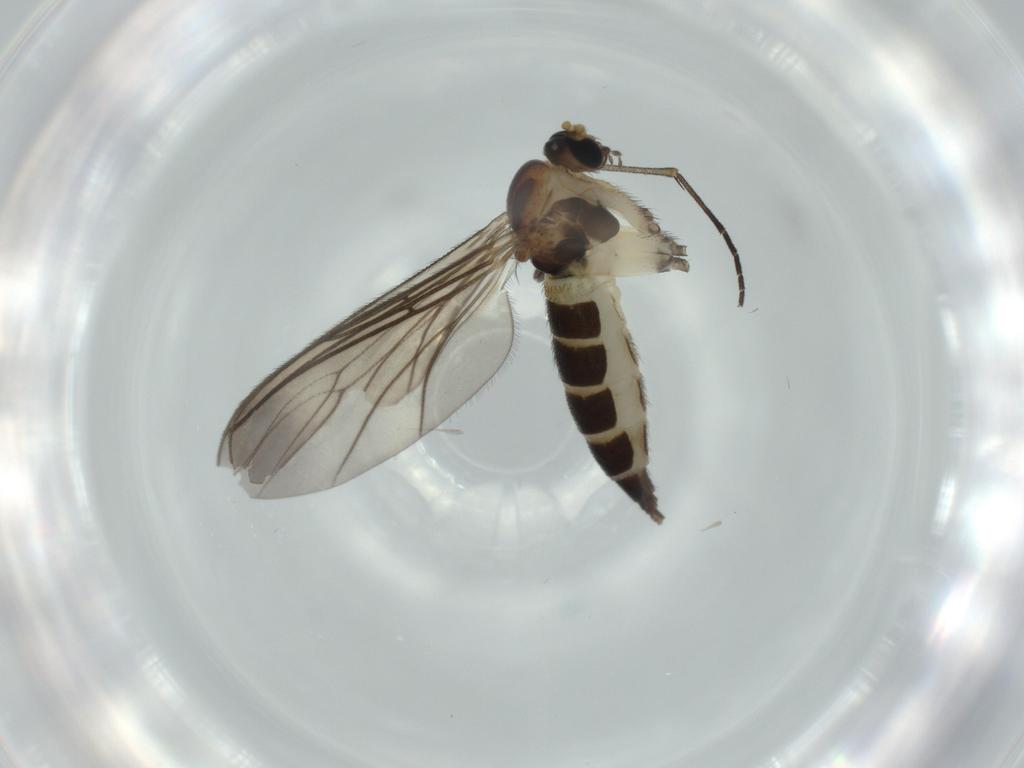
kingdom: Animalia
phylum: Arthropoda
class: Insecta
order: Diptera
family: Sciaridae
